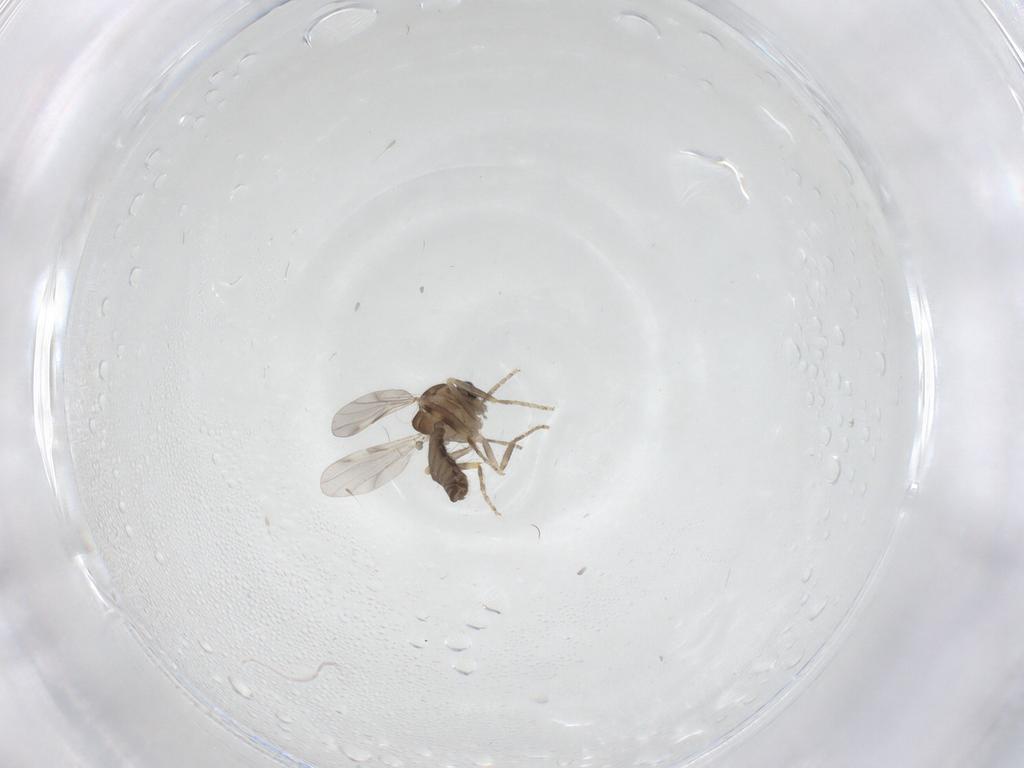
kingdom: Animalia
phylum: Arthropoda
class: Insecta
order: Diptera
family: Ceratopogonidae
